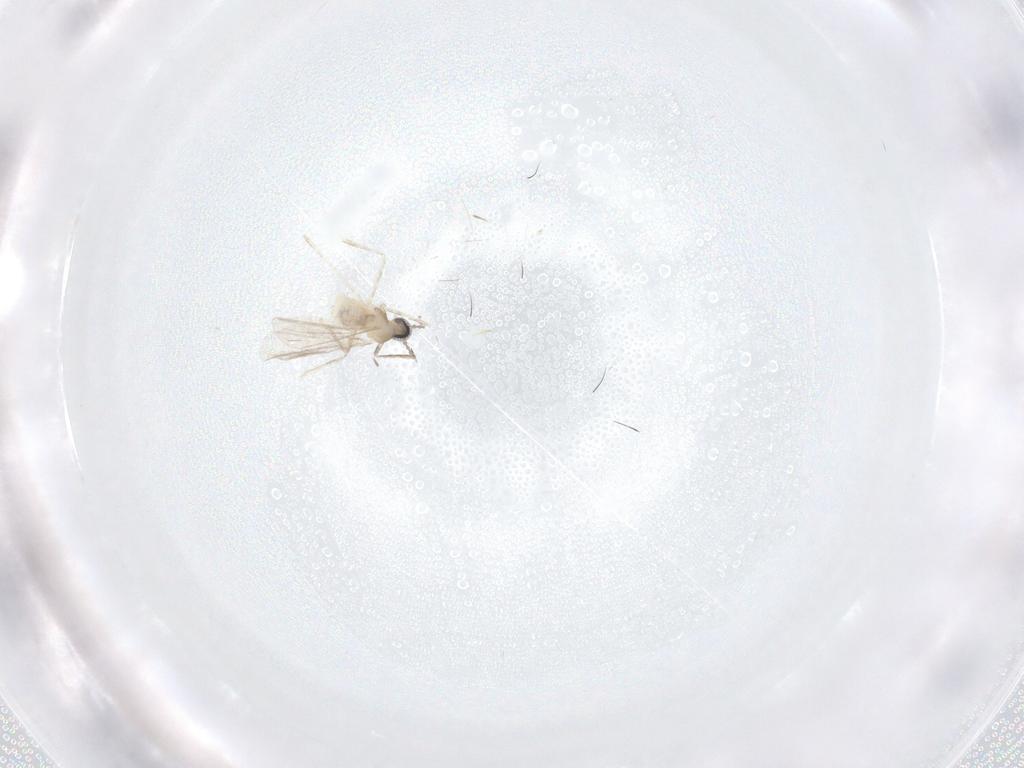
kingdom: Animalia
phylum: Arthropoda
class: Insecta
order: Diptera
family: Cecidomyiidae
